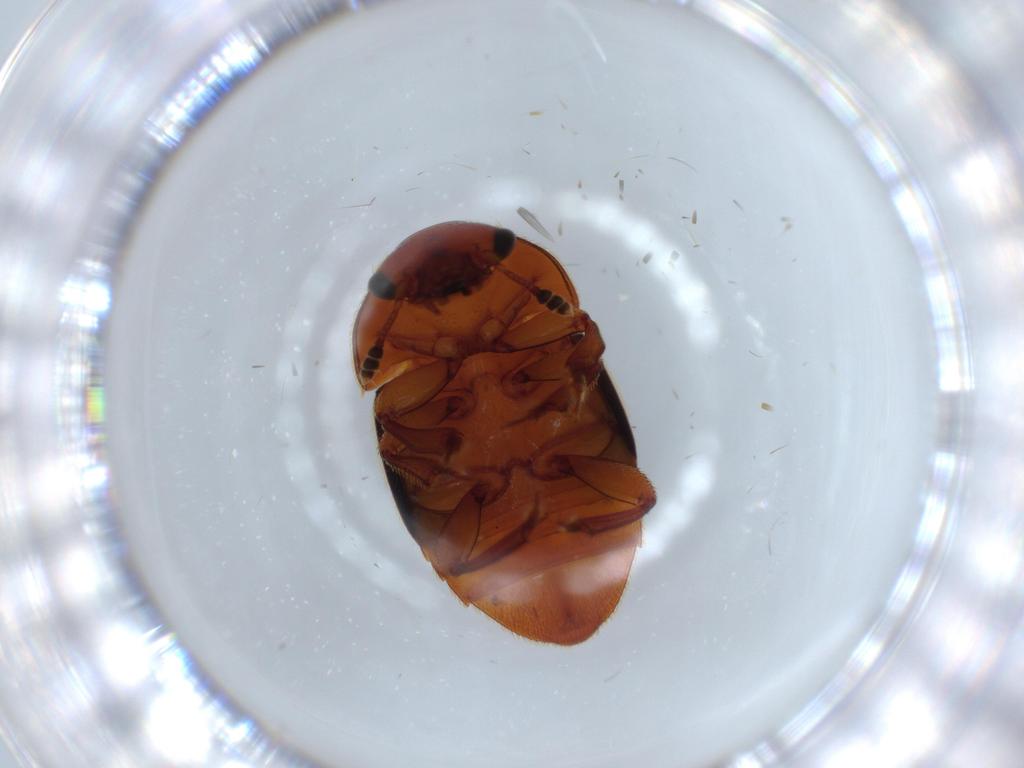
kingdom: Animalia
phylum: Arthropoda
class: Insecta
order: Coleoptera
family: Nitidulidae
